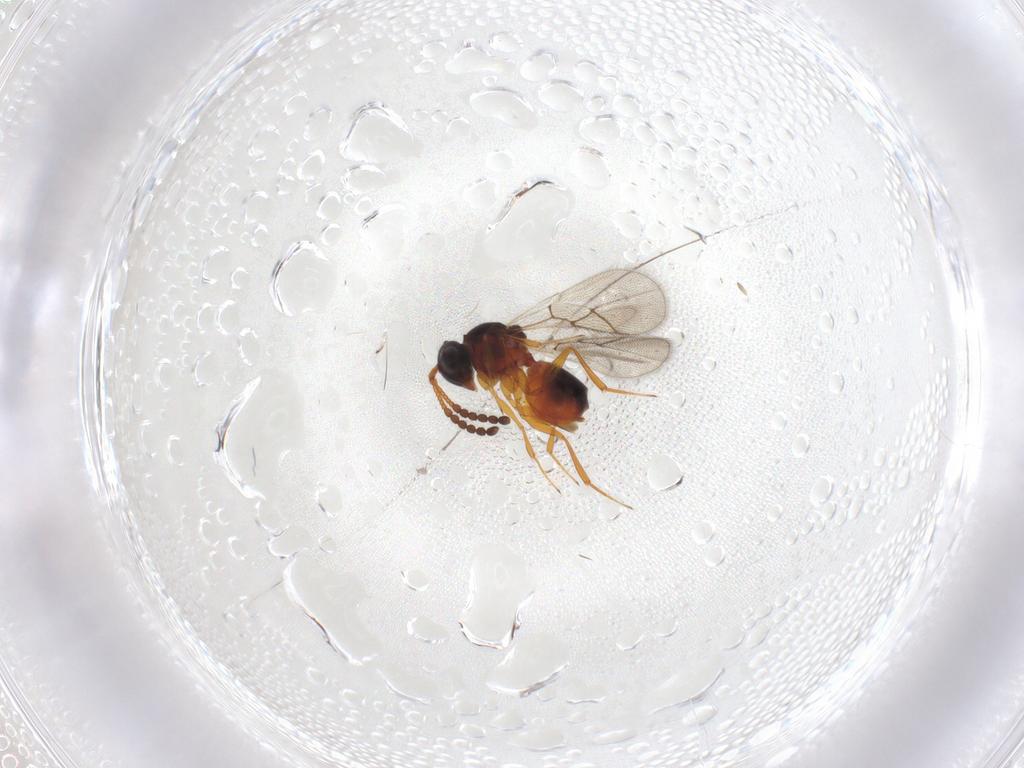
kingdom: Animalia
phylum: Arthropoda
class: Insecta
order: Hymenoptera
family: Figitidae
